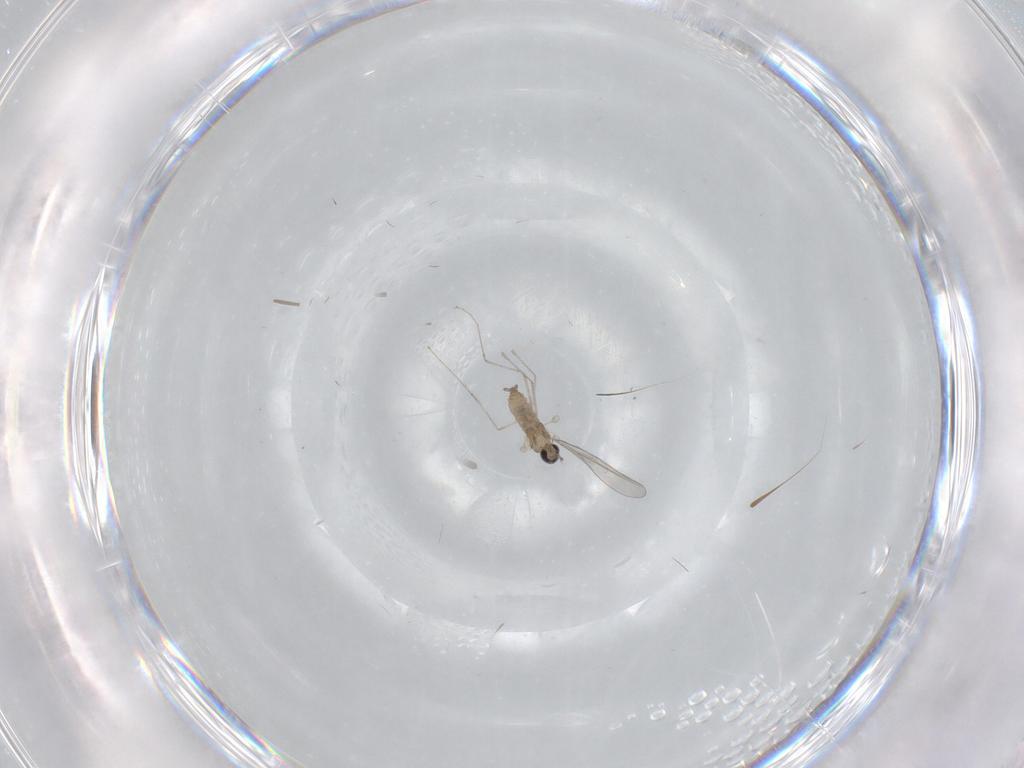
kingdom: Animalia
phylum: Arthropoda
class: Insecta
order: Diptera
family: Cecidomyiidae
